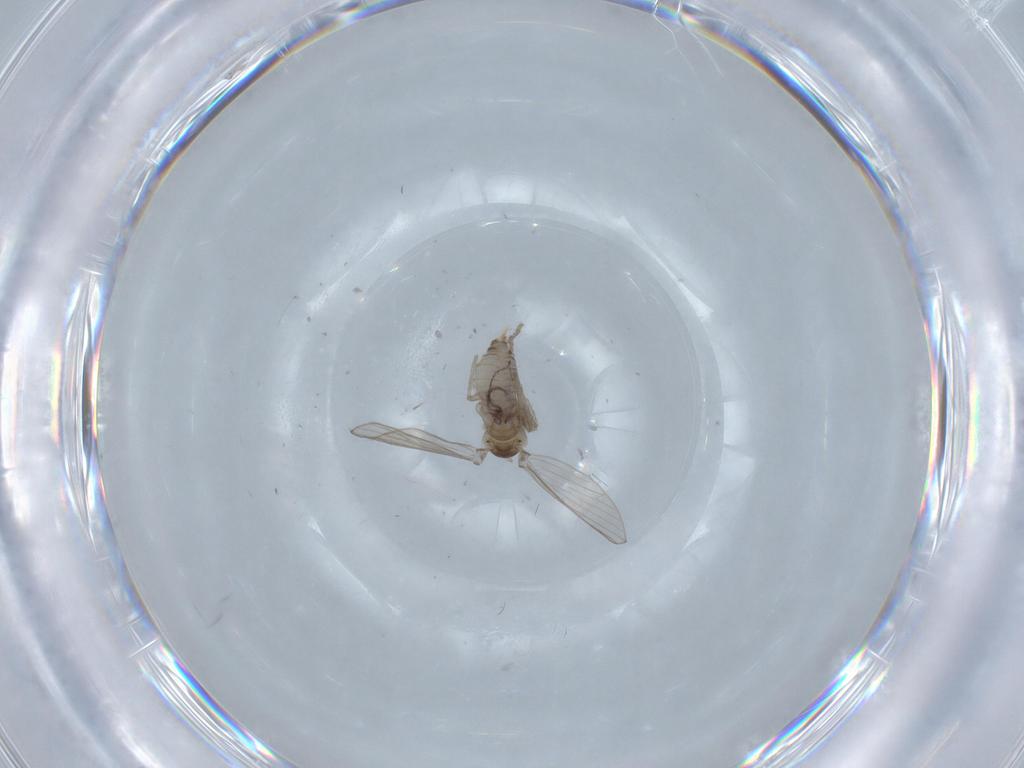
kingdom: Animalia
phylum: Arthropoda
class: Insecta
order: Diptera
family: Psychodidae
